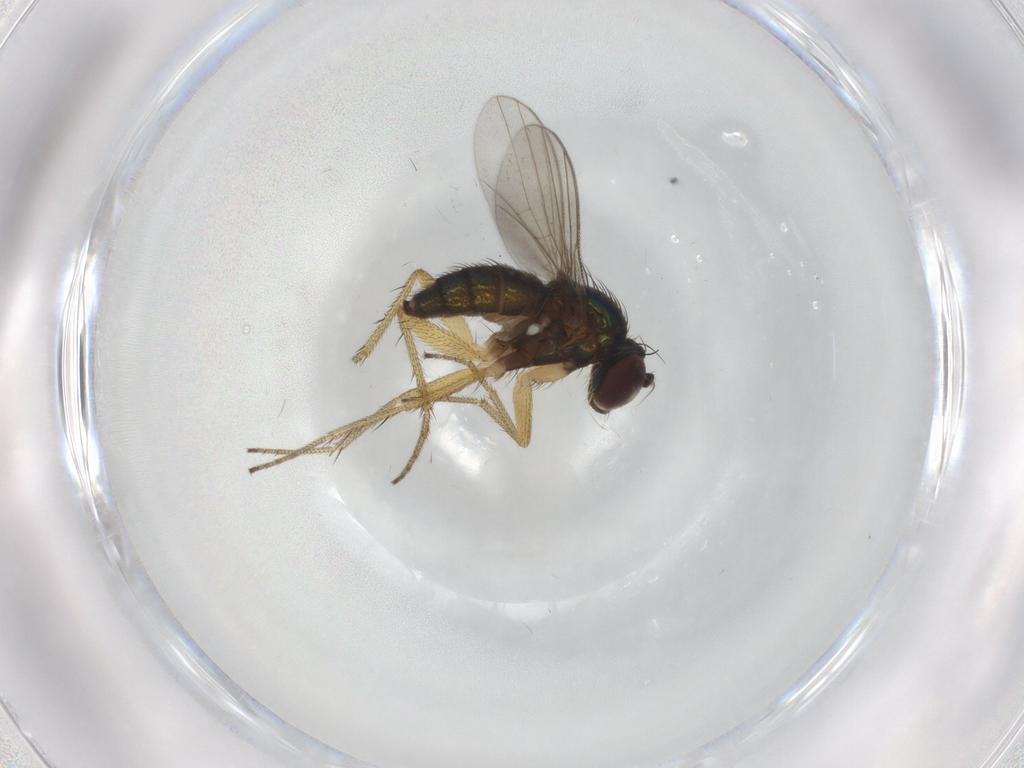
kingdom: Animalia
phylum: Arthropoda
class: Insecta
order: Diptera
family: Dolichopodidae
